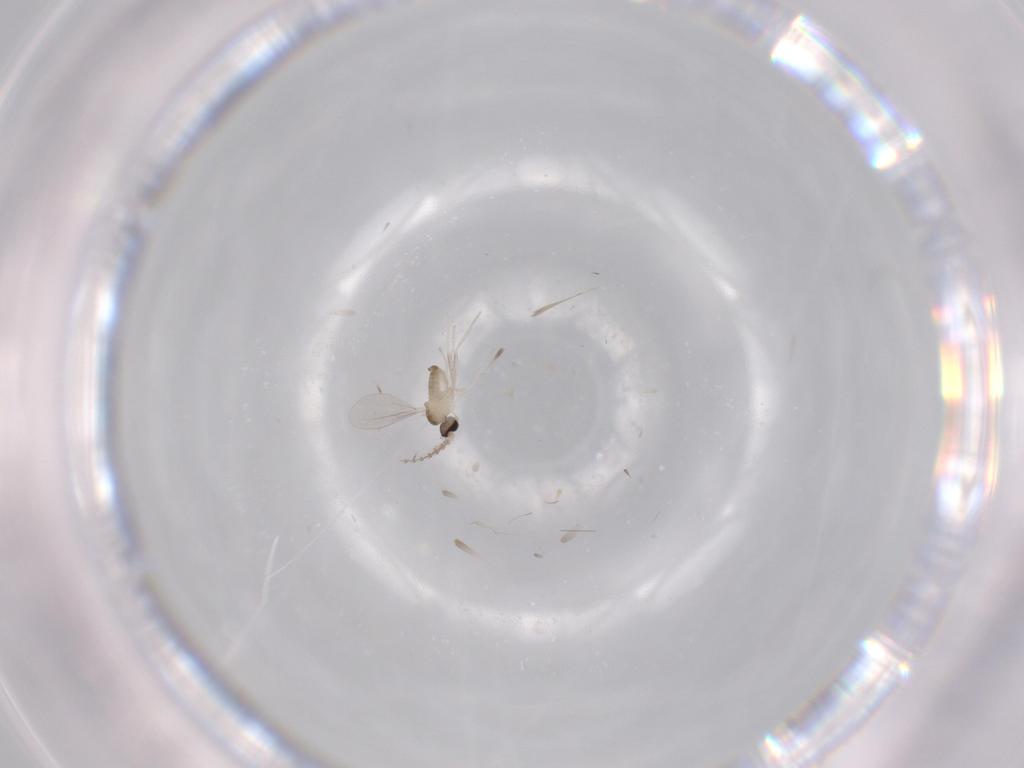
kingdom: Animalia
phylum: Arthropoda
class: Insecta
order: Diptera
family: Cecidomyiidae
